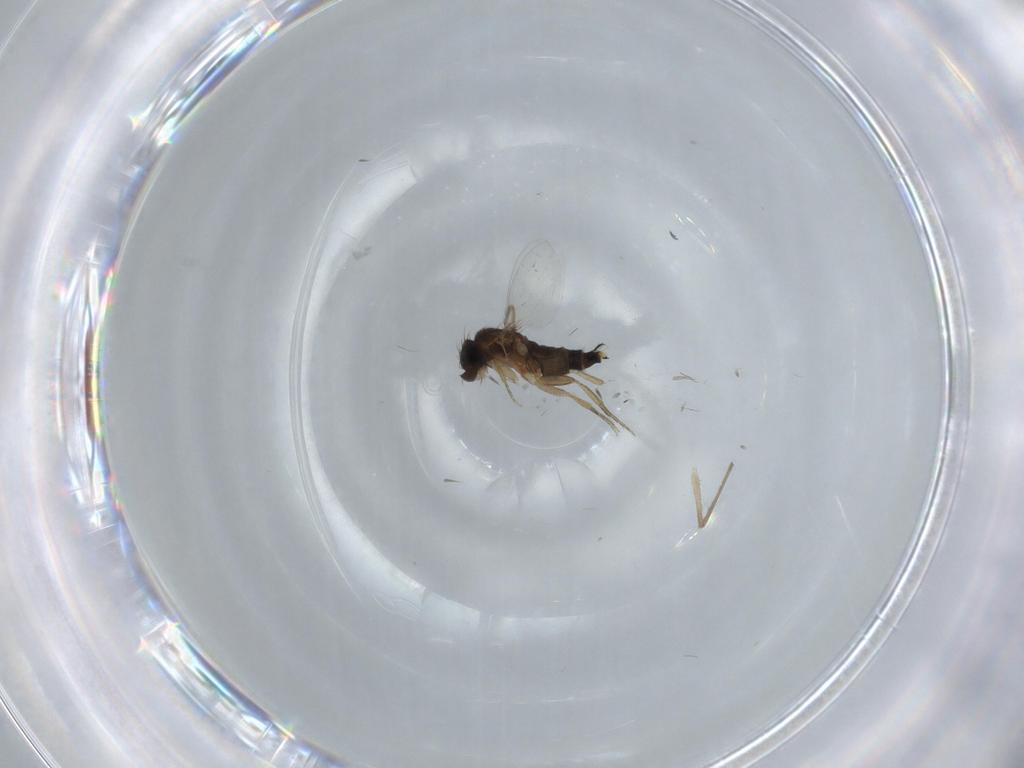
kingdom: Animalia
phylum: Arthropoda
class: Insecta
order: Diptera
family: Phoridae
